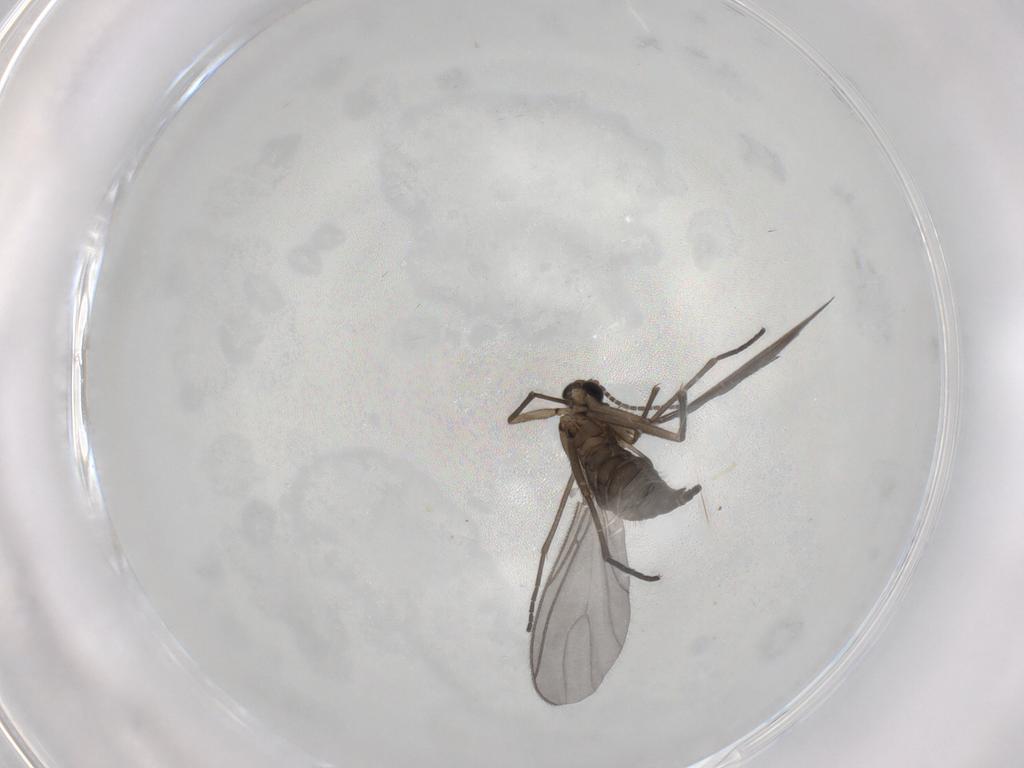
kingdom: Animalia
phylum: Arthropoda
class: Insecta
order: Diptera
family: Sciaridae
